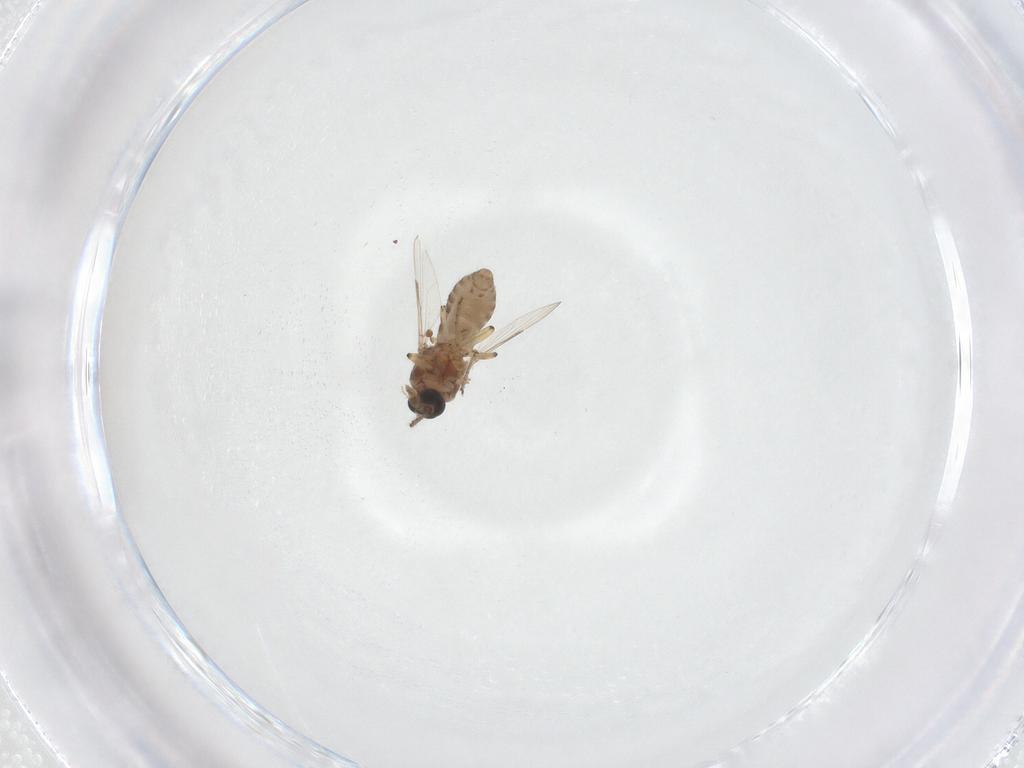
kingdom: Animalia
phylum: Arthropoda
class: Insecta
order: Diptera
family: Ceratopogonidae
